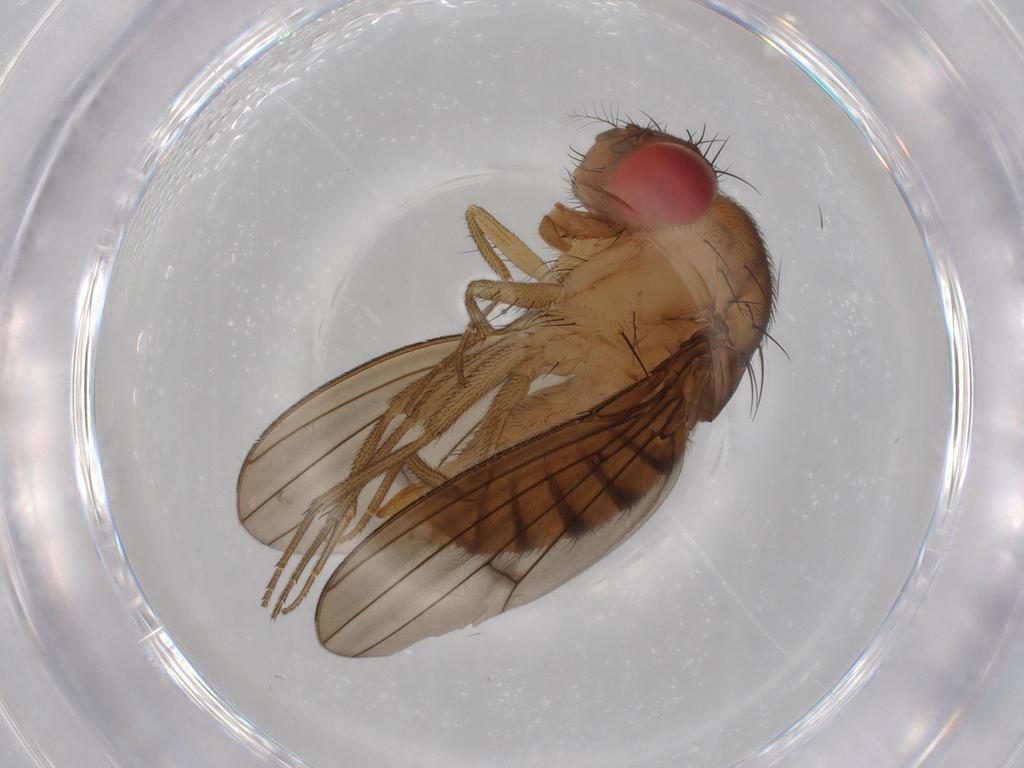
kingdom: Animalia
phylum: Arthropoda
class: Insecta
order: Diptera
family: Drosophilidae
